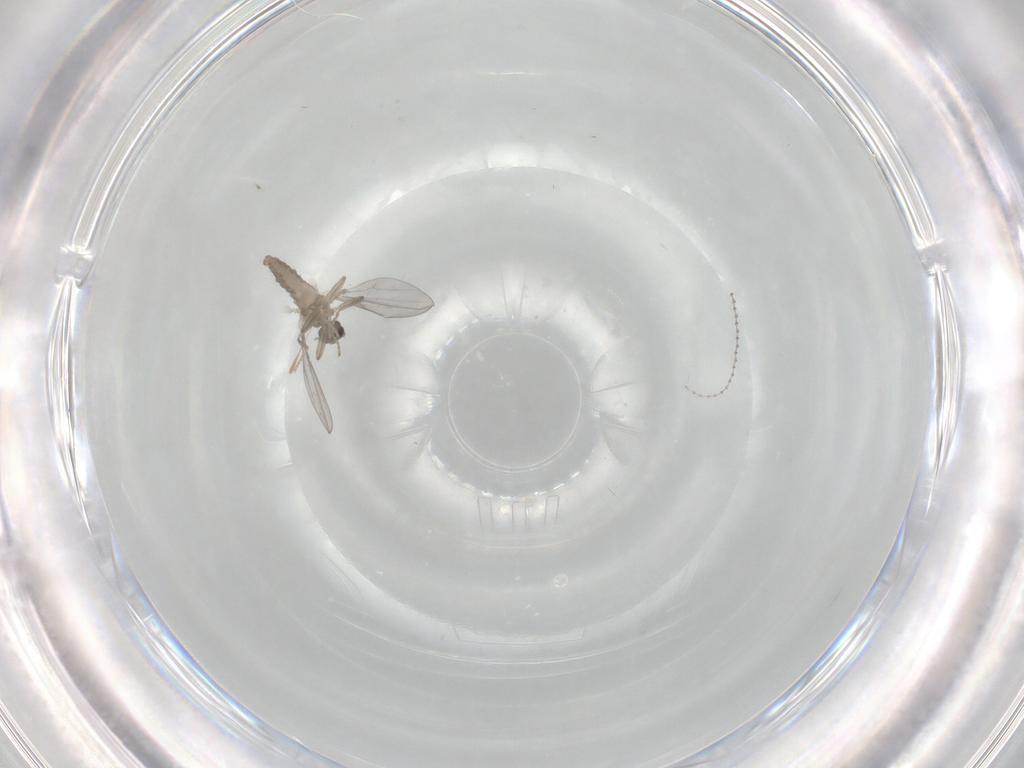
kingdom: Animalia
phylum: Arthropoda
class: Insecta
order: Diptera
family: Cecidomyiidae
